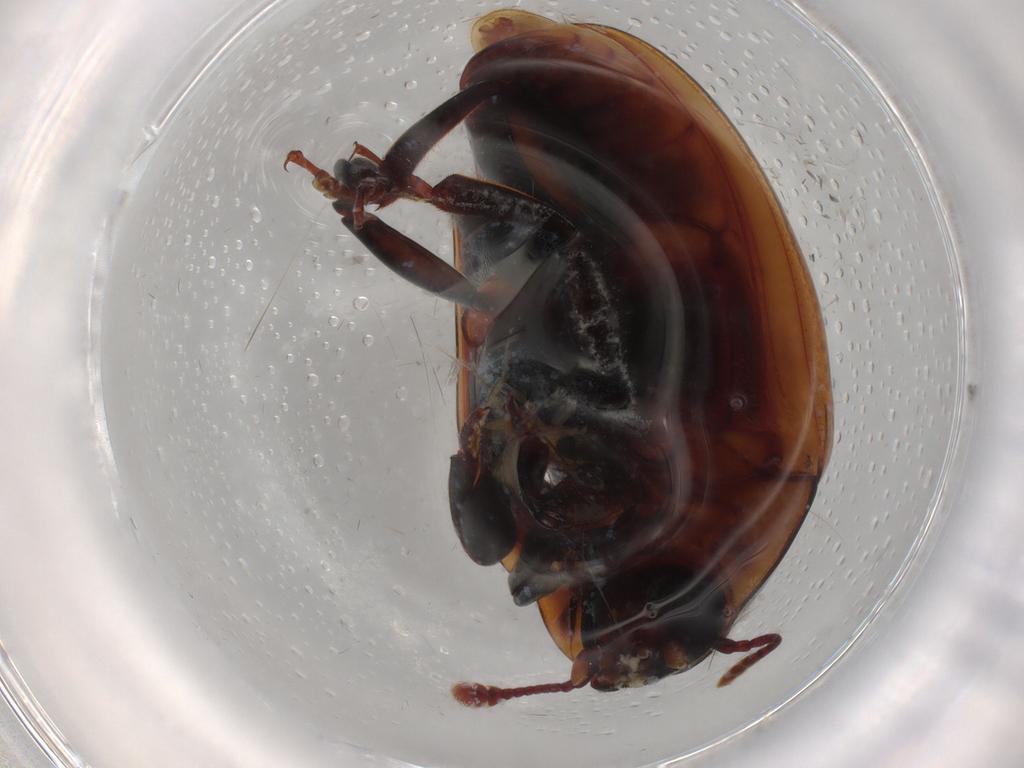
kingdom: Animalia
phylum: Arthropoda
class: Insecta
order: Coleoptera
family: Zopheridae
